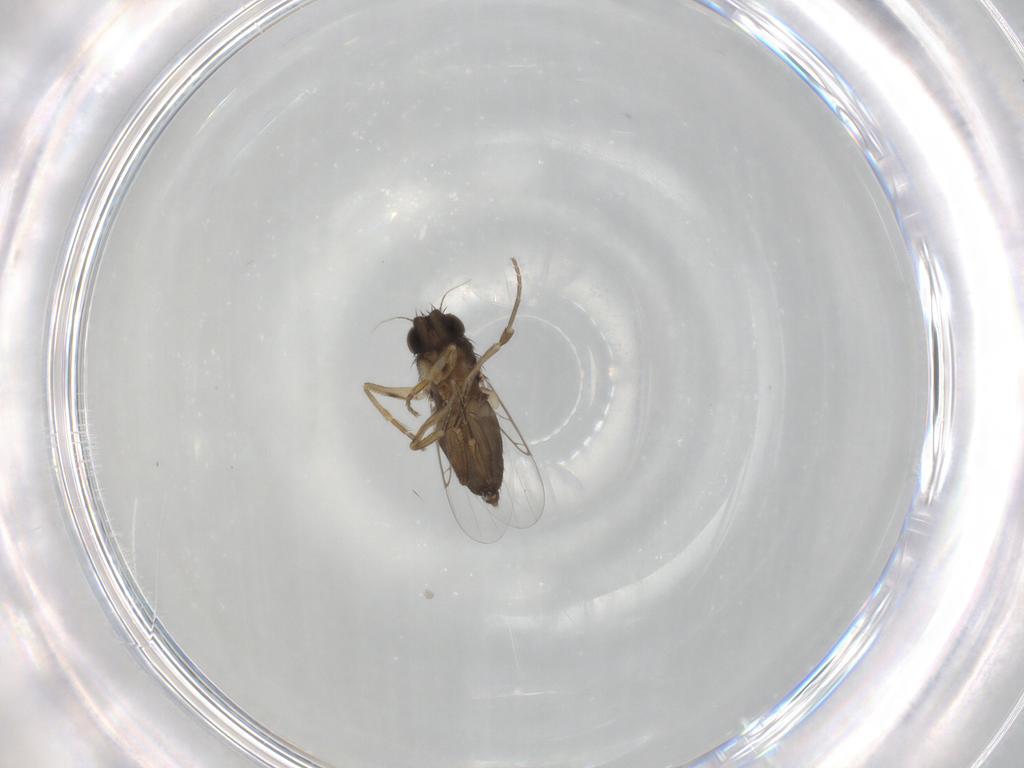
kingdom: Animalia
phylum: Arthropoda
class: Insecta
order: Diptera
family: Phoridae
